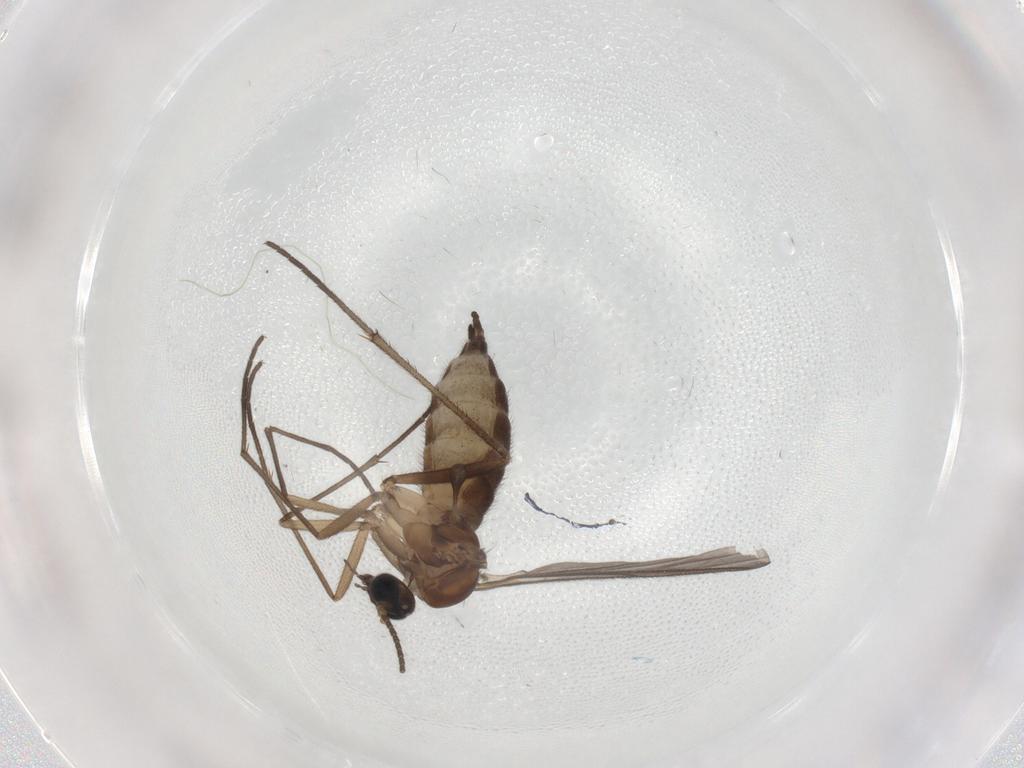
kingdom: Animalia
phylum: Arthropoda
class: Insecta
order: Diptera
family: Sciaridae
